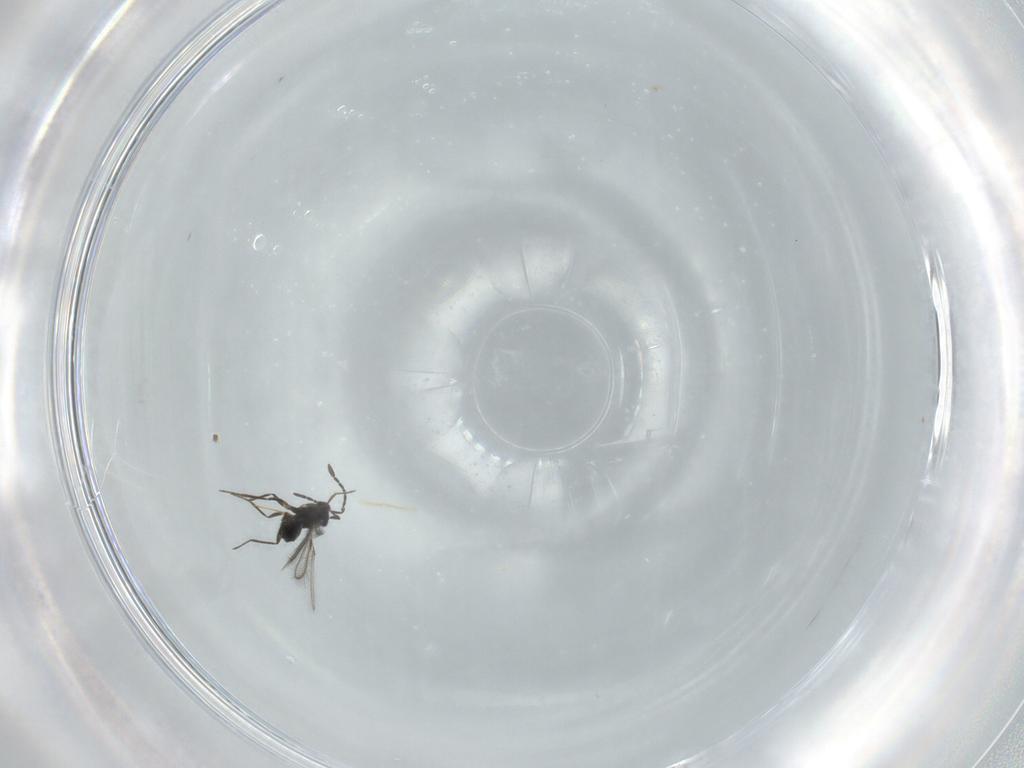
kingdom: Animalia
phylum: Arthropoda
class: Insecta
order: Hymenoptera
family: Mymaridae
